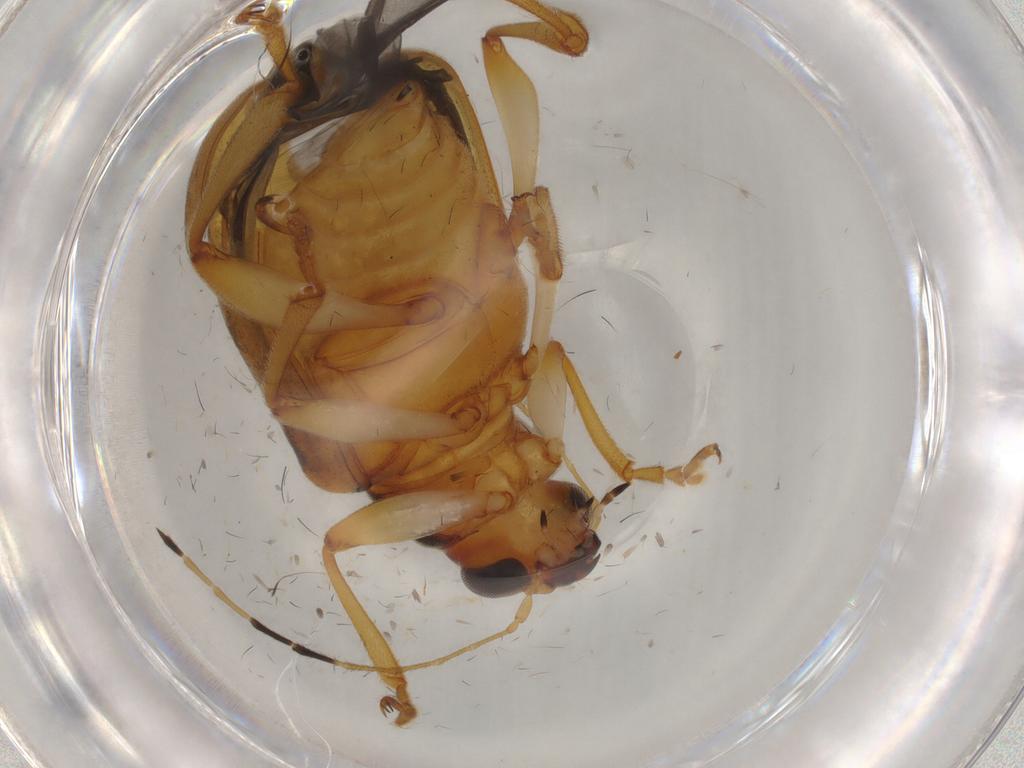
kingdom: Animalia
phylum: Arthropoda
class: Insecta
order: Coleoptera
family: Chrysomelidae
